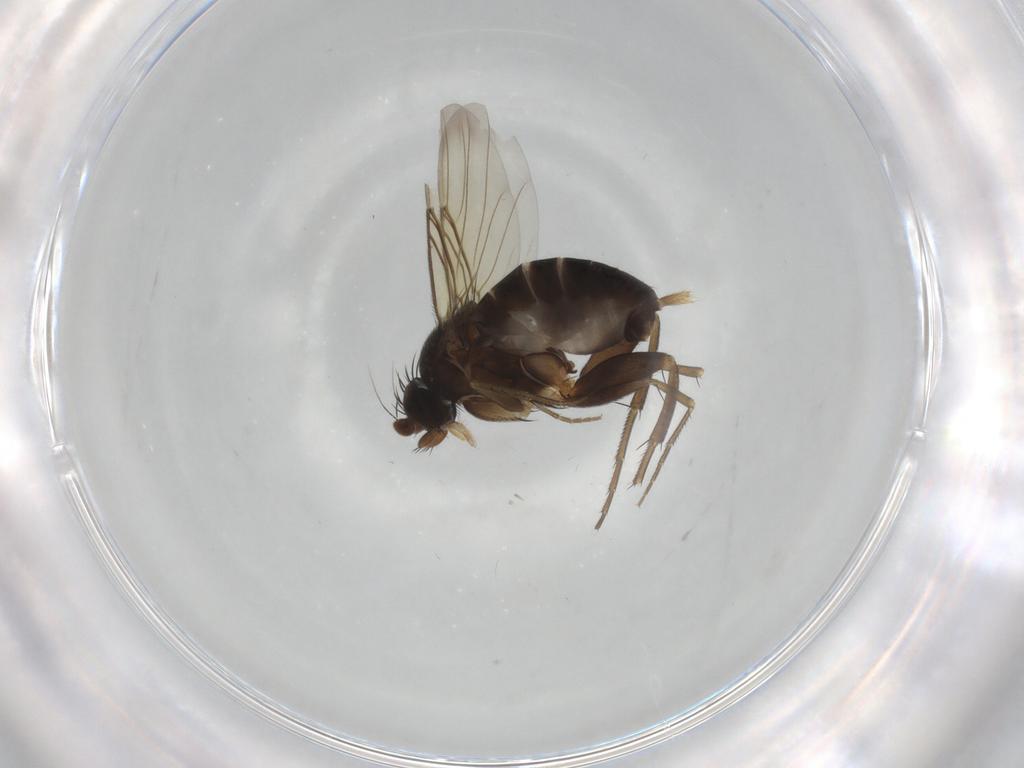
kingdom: Animalia
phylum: Arthropoda
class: Insecta
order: Diptera
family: Phoridae
